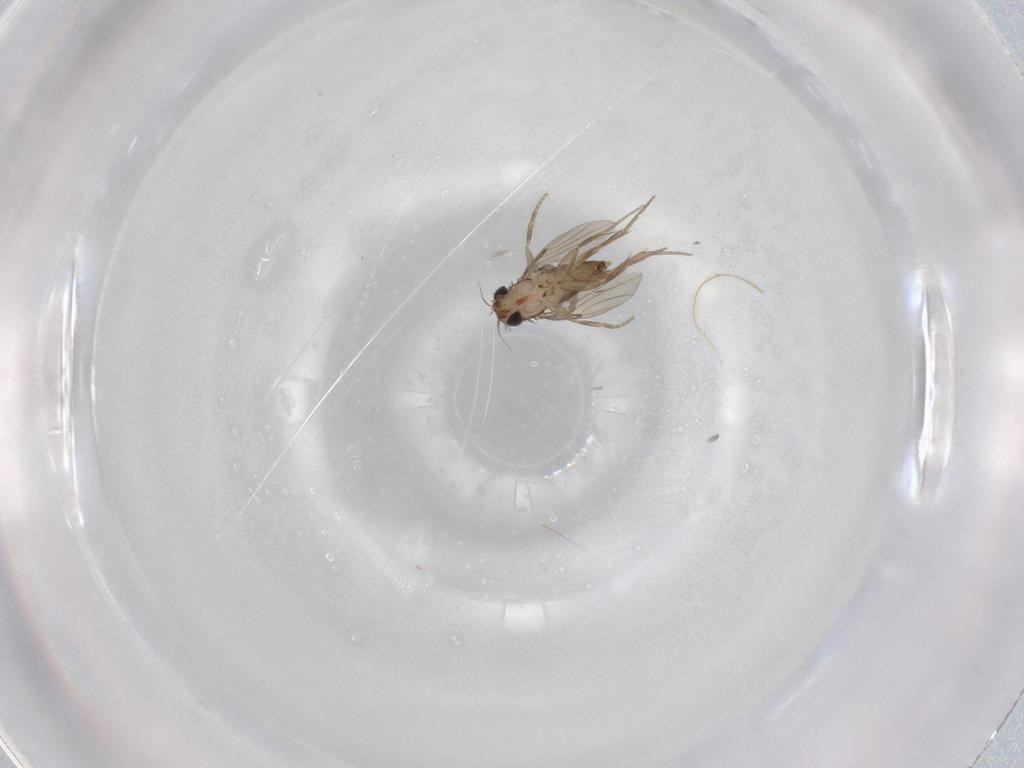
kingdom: Animalia
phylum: Arthropoda
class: Insecta
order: Diptera
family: Phoridae
